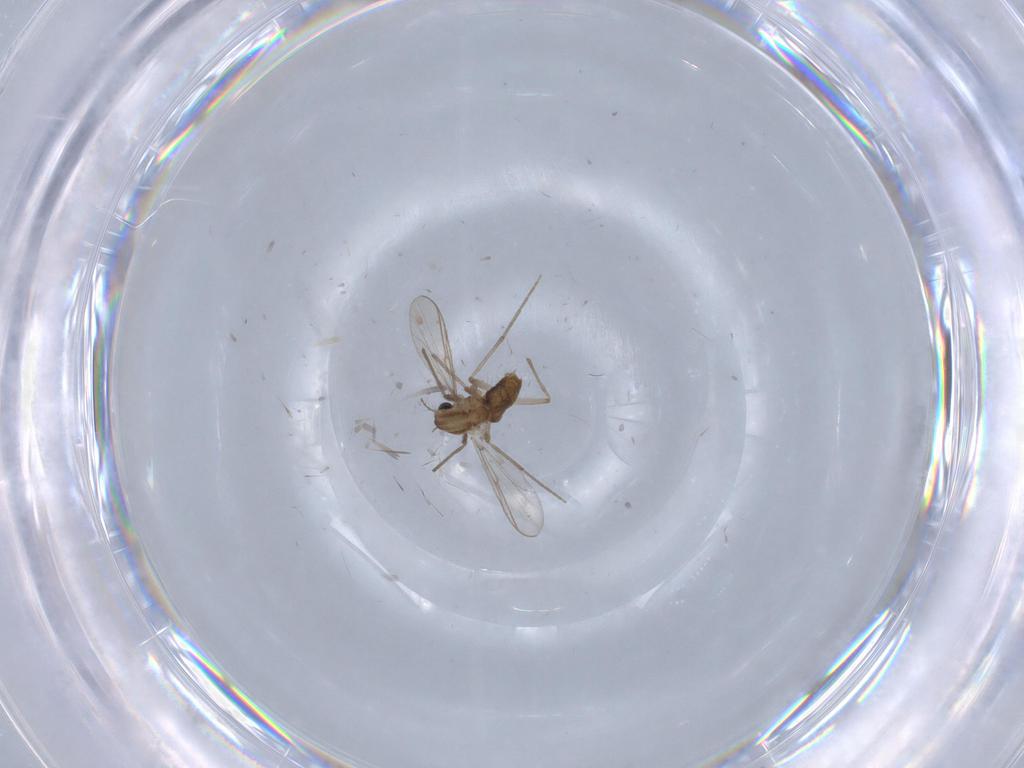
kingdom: Animalia
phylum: Arthropoda
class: Insecta
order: Diptera
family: Chironomidae
